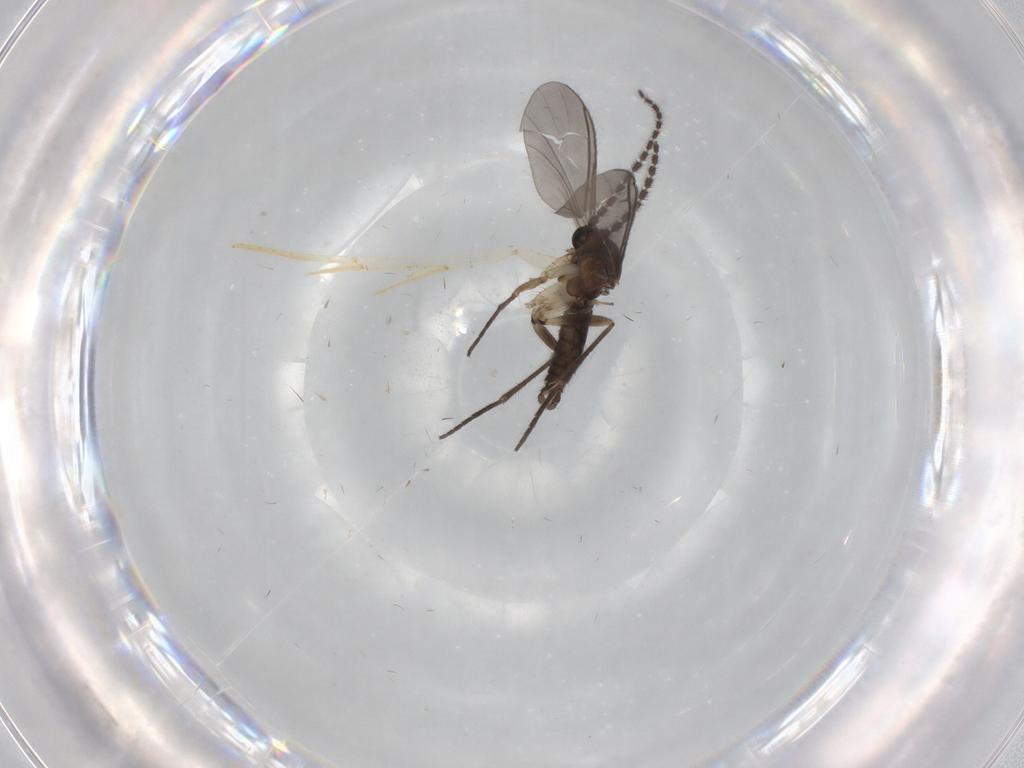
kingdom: Animalia
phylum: Arthropoda
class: Insecta
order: Diptera
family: Sciaridae
